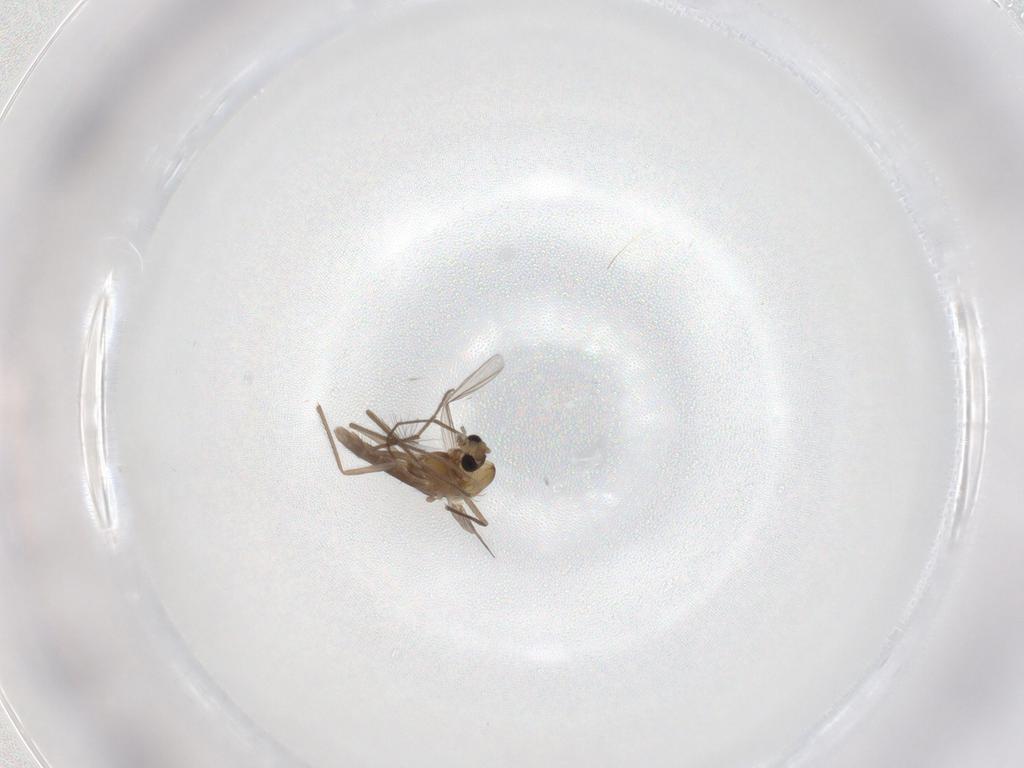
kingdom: Animalia
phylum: Arthropoda
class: Insecta
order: Diptera
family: Chironomidae
